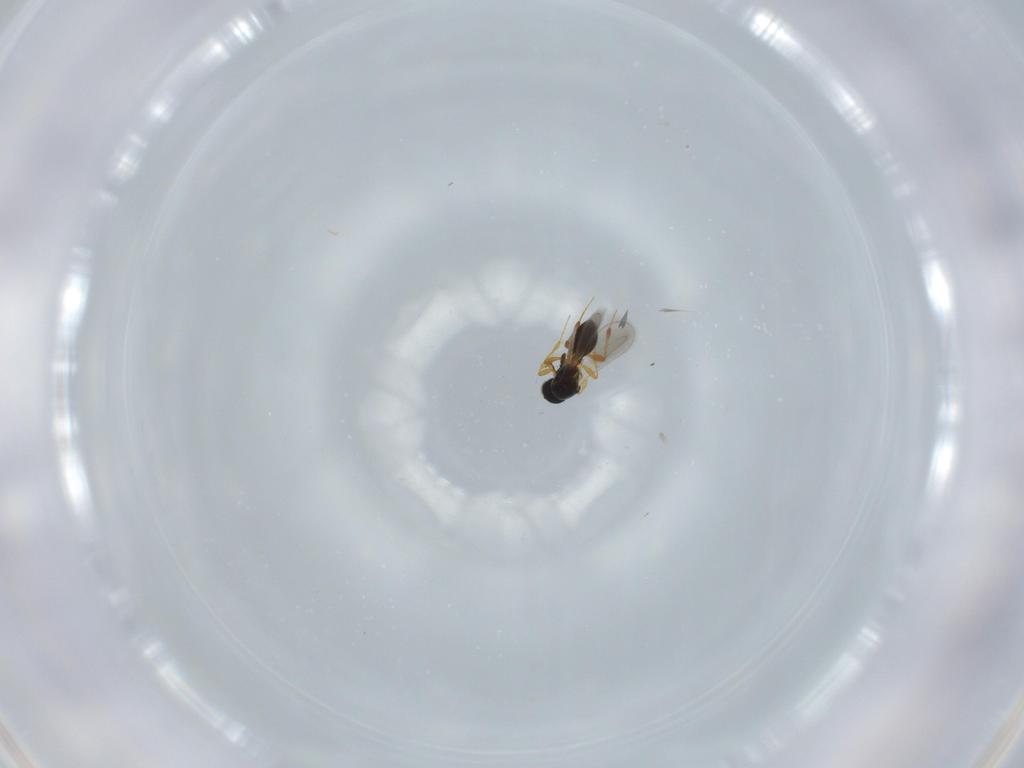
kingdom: Animalia
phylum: Arthropoda
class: Insecta
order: Hymenoptera
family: Platygastridae
